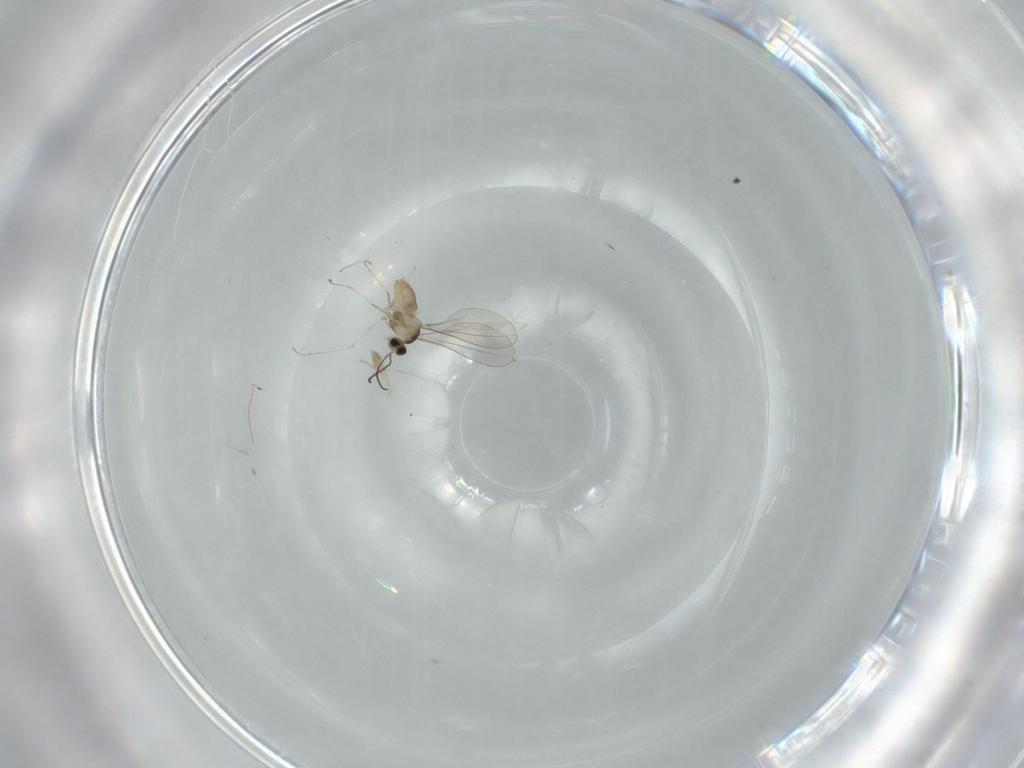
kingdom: Animalia
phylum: Arthropoda
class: Insecta
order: Diptera
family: Cecidomyiidae
